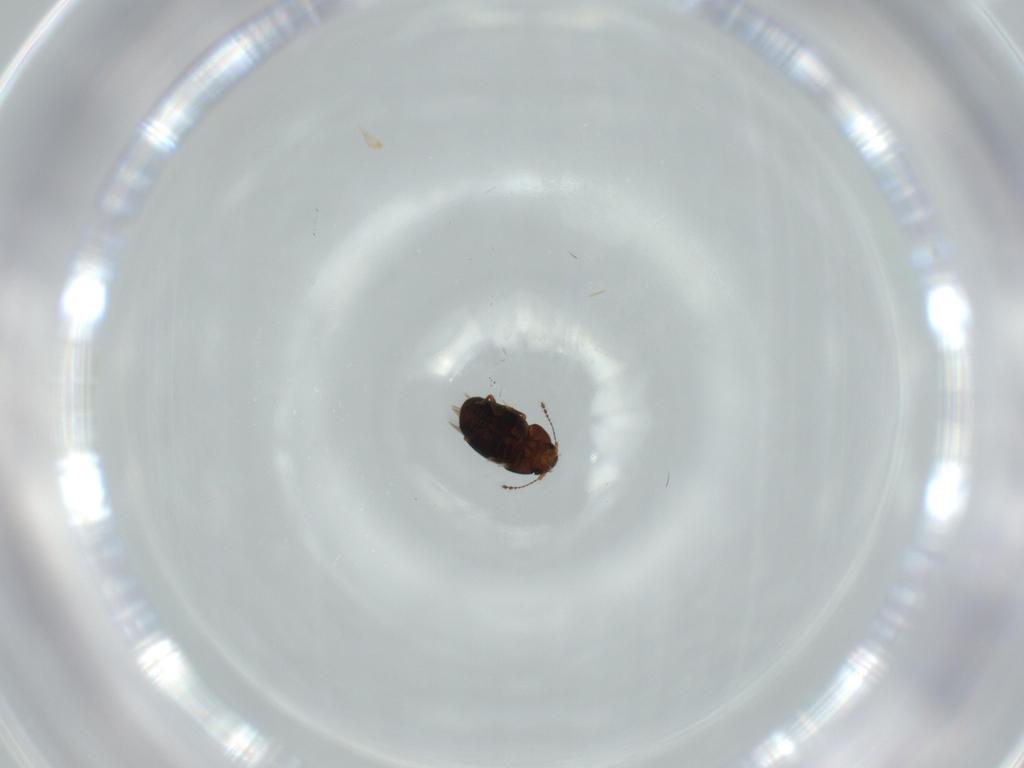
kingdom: Animalia
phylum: Arthropoda
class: Insecta
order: Coleoptera
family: Ptiliidae
